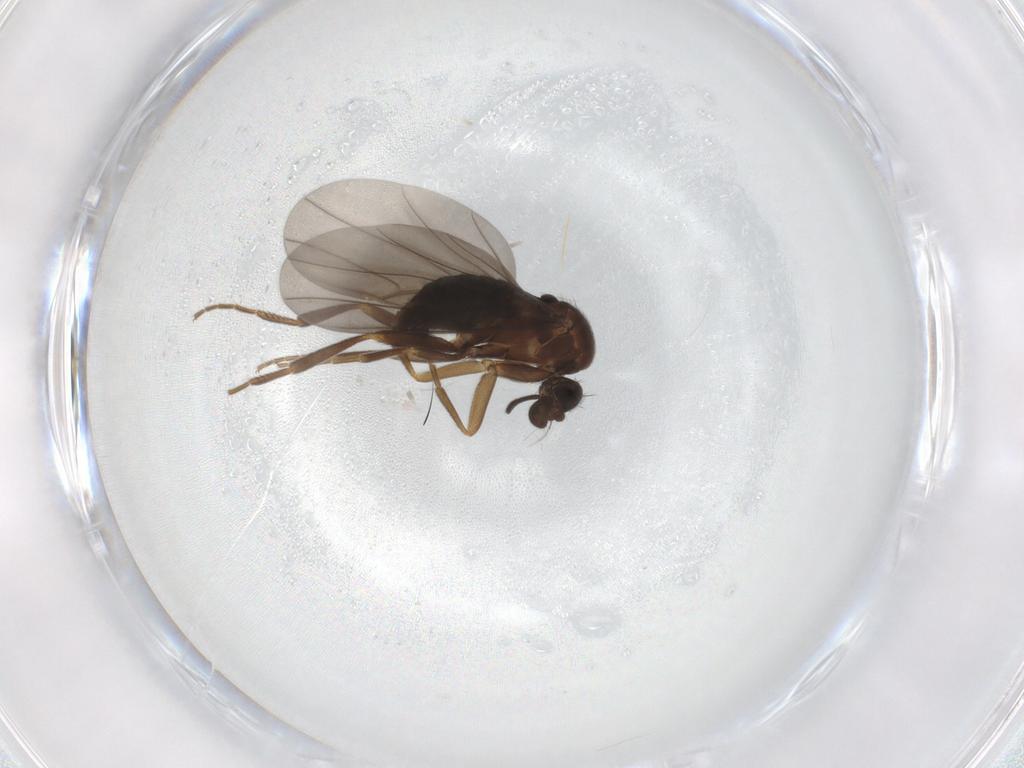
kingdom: Animalia
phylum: Arthropoda
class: Insecta
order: Diptera
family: Chironomidae
